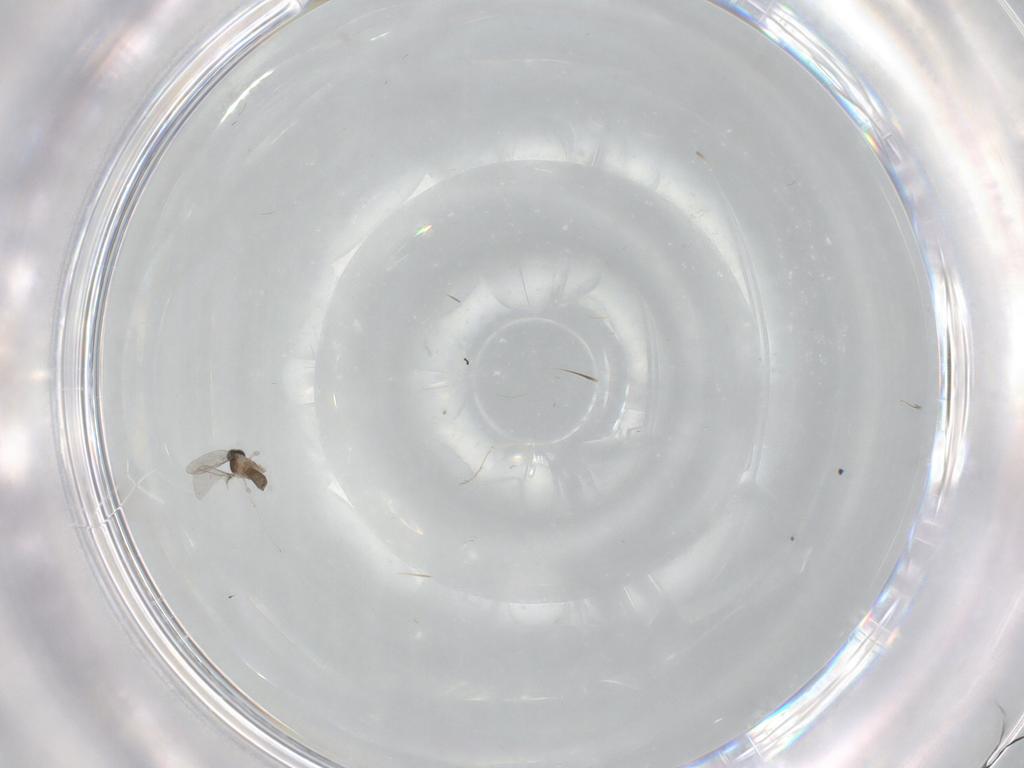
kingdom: Animalia
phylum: Arthropoda
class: Insecta
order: Diptera
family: Cecidomyiidae
